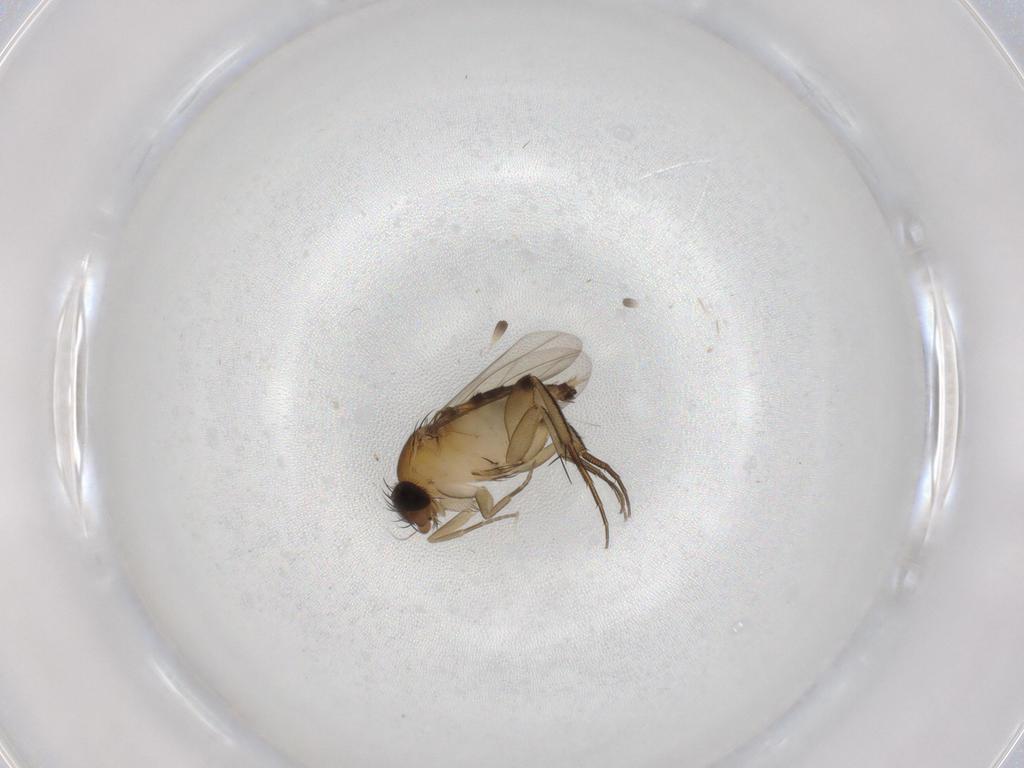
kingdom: Animalia
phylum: Arthropoda
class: Insecta
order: Diptera
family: Phoridae
